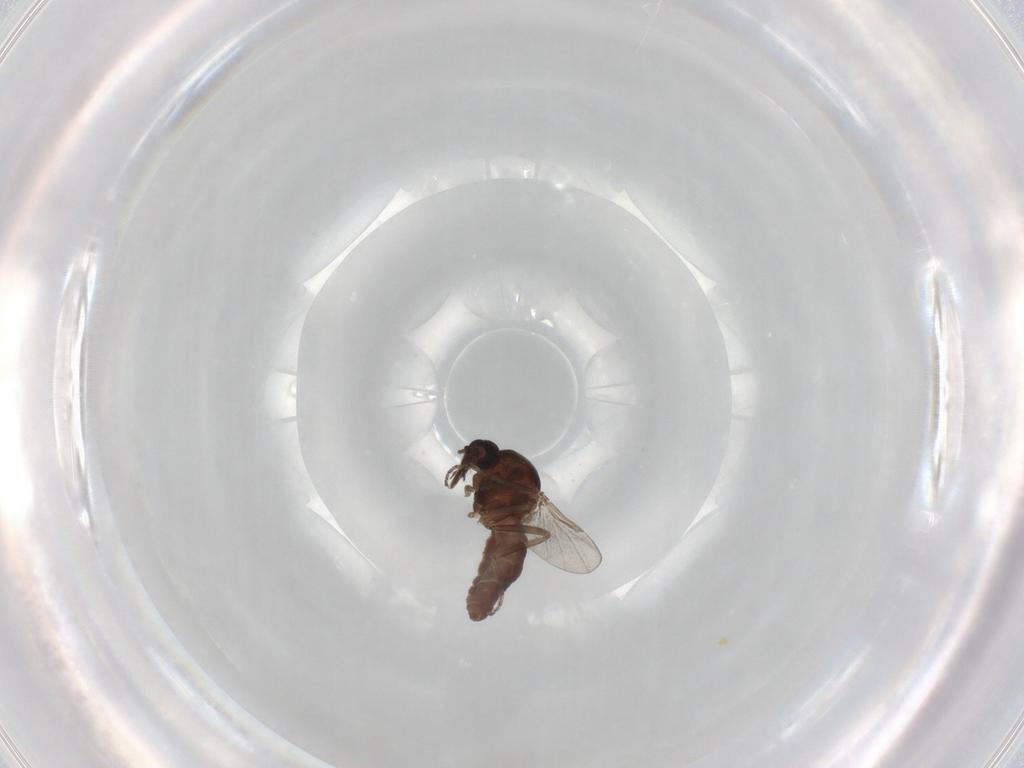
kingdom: Animalia
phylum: Arthropoda
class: Insecta
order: Diptera
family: Ceratopogonidae
